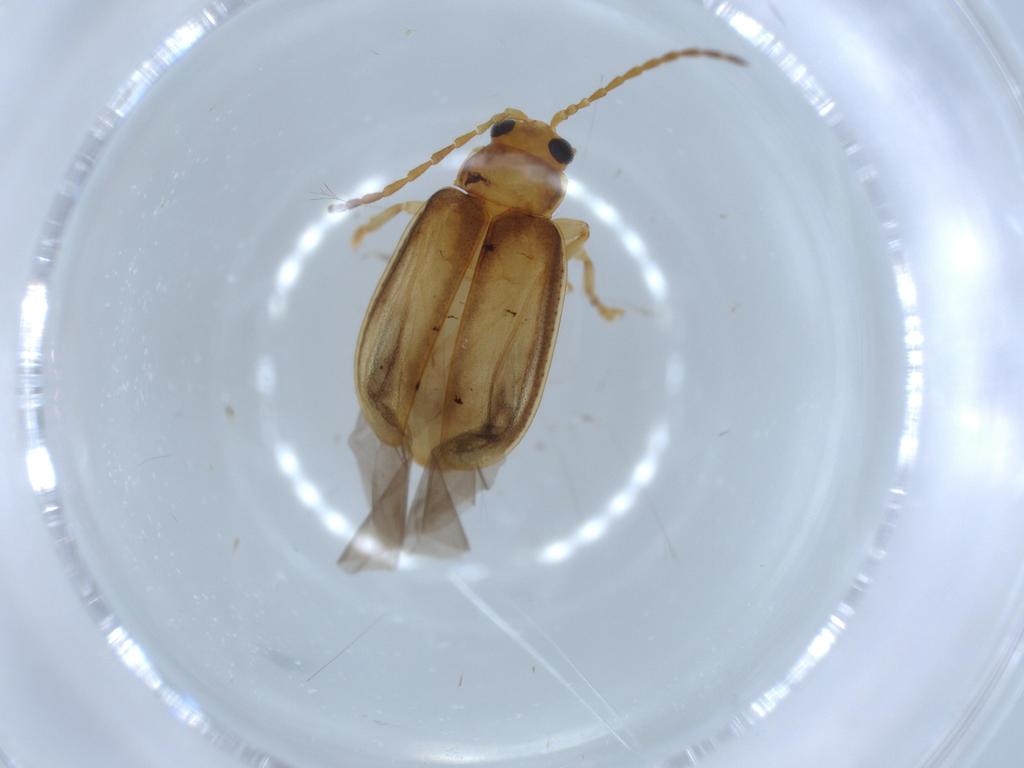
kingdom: Animalia
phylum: Arthropoda
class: Insecta
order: Coleoptera
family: Chrysomelidae
